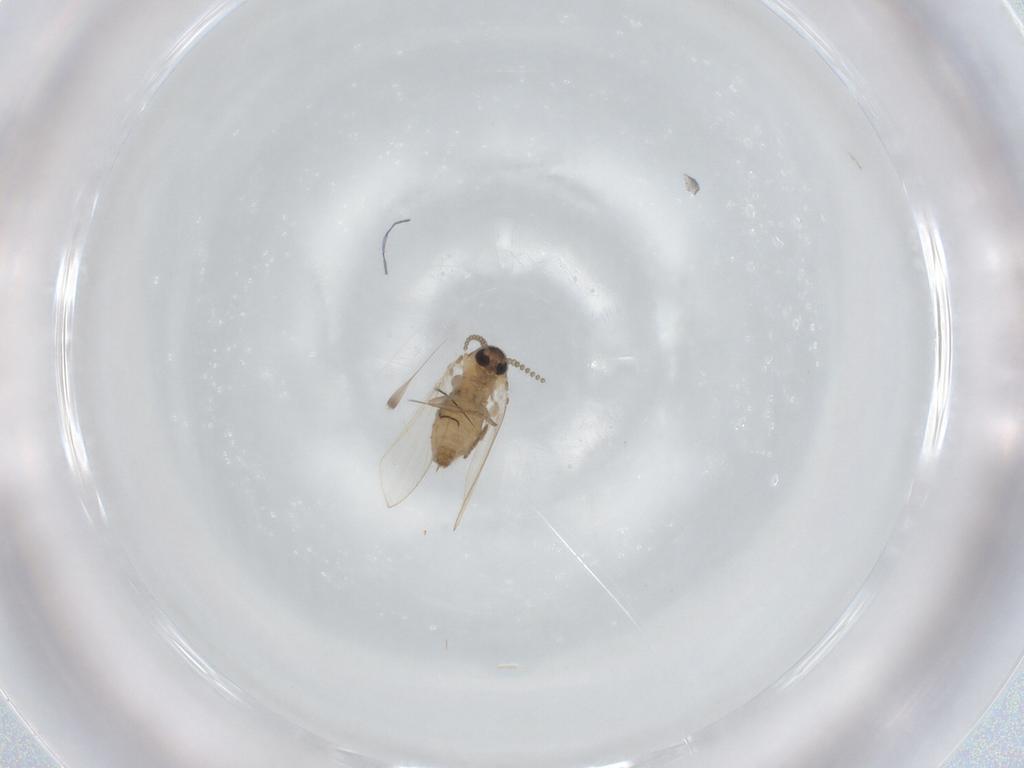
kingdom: Animalia
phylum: Arthropoda
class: Insecta
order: Diptera
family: Psychodidae
